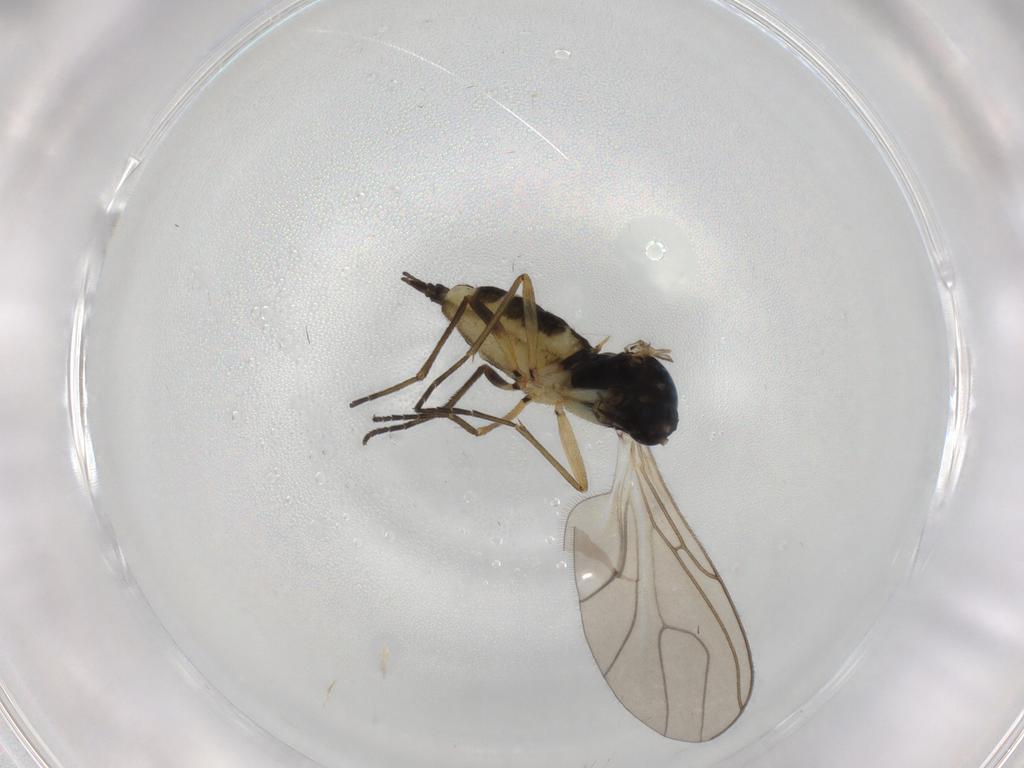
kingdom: Animalia
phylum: Arthropoda
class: Insecta
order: Diptera
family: Sciaridae
